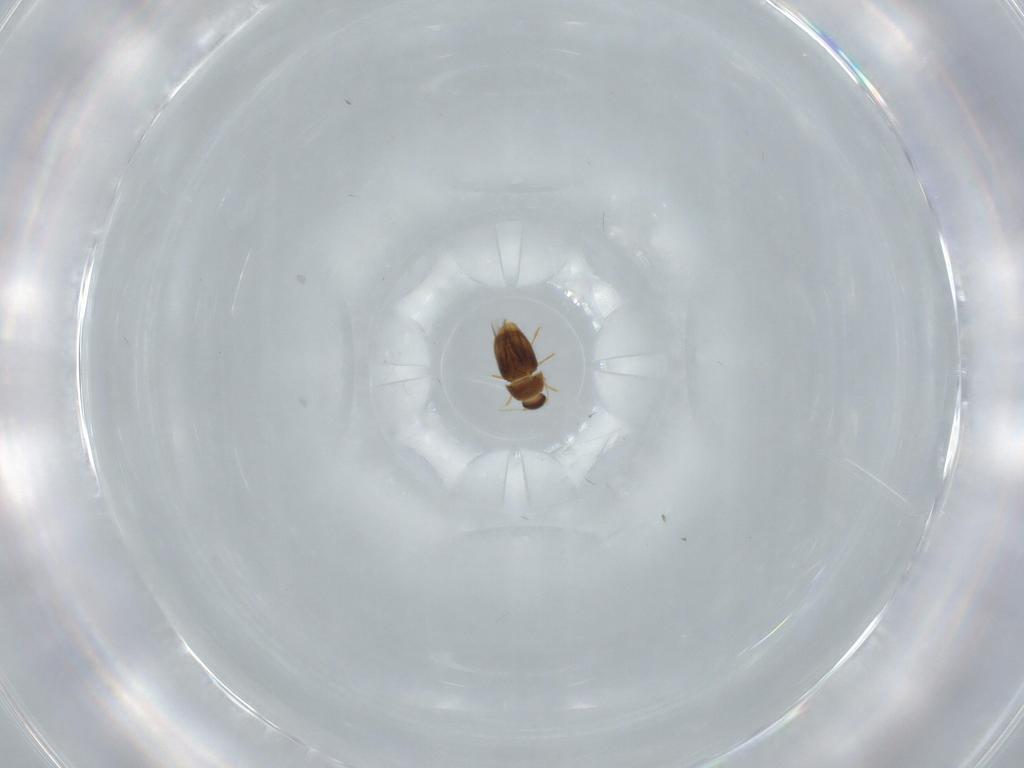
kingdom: Animalia
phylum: Arthropoda
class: Insecta
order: Coleoptera
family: Ptiliidae
